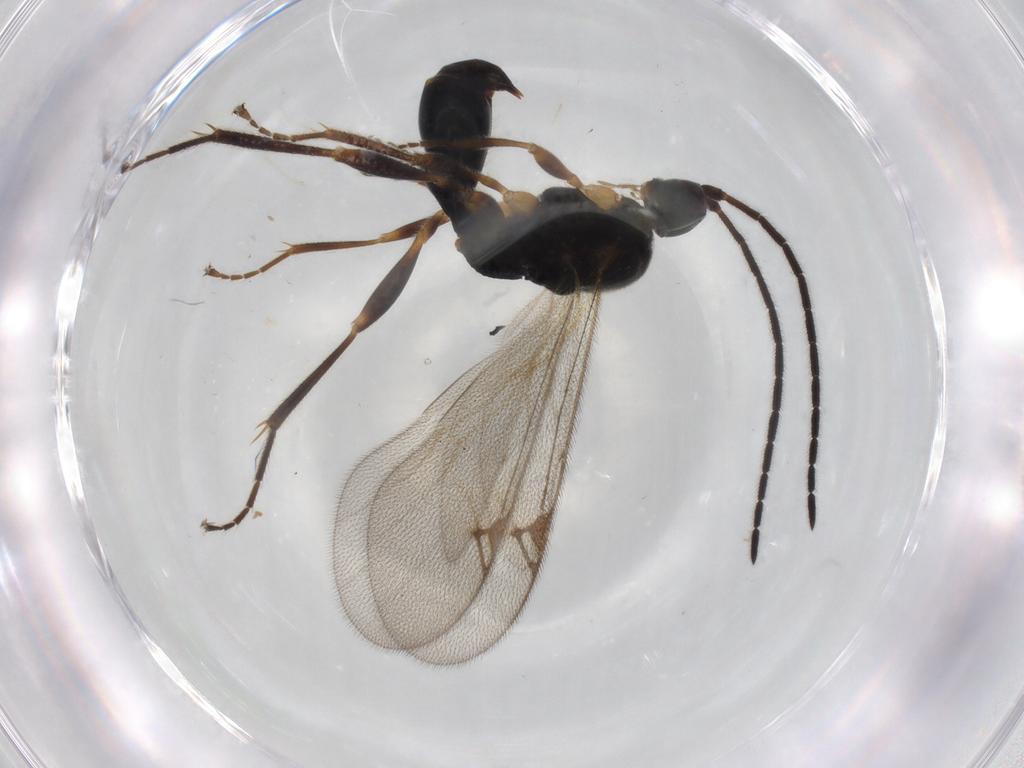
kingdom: Animalia
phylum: Arthropoda
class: Insecta
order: Hymenoptera
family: Proctotrupidae
